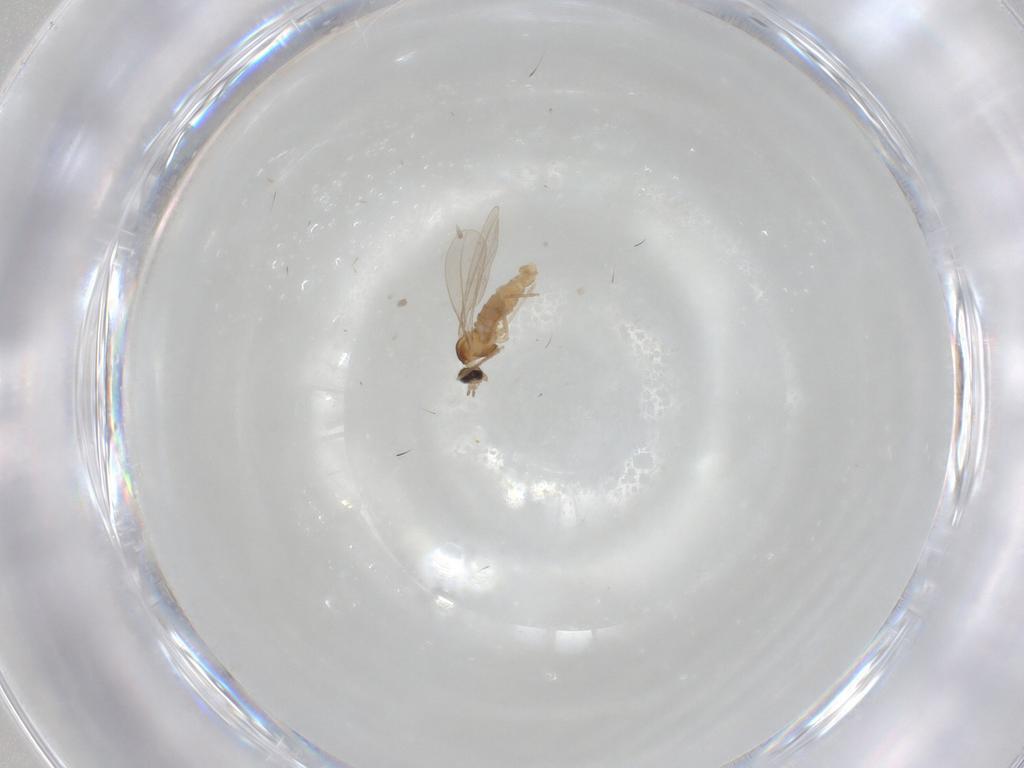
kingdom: Animalia
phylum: Arthropoda
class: Insecta
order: Diptera
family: Cecidomyiidae
